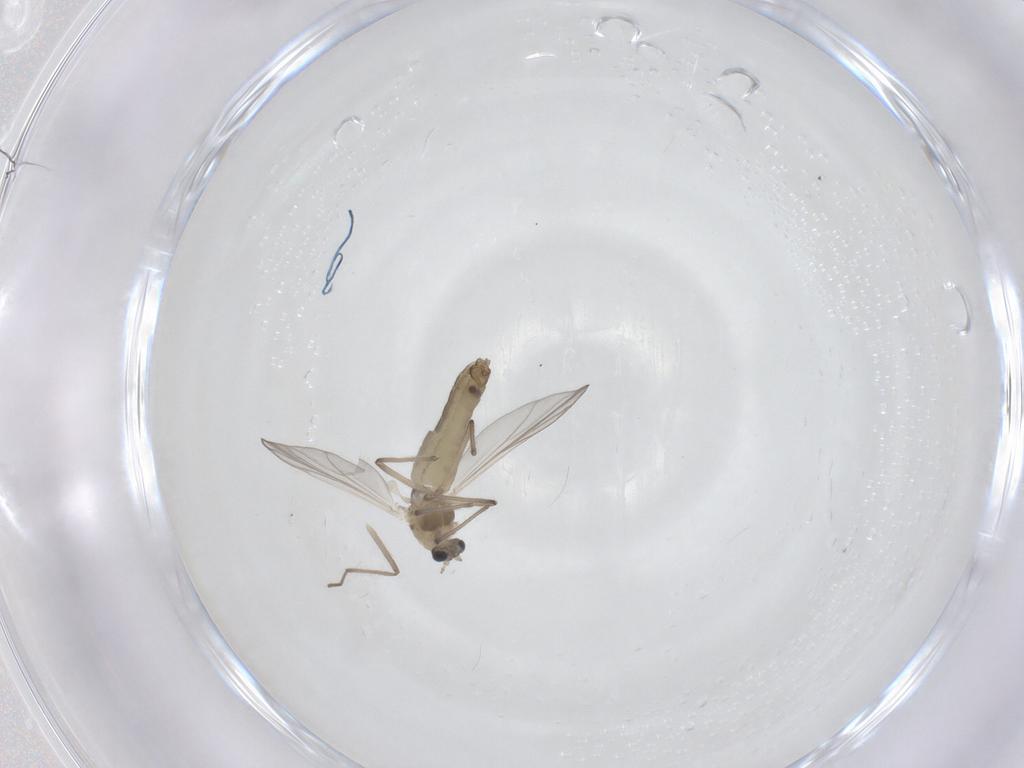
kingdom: Animalia
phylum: Arthropoda
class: Insecta
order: Diptera
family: Chironomidae
